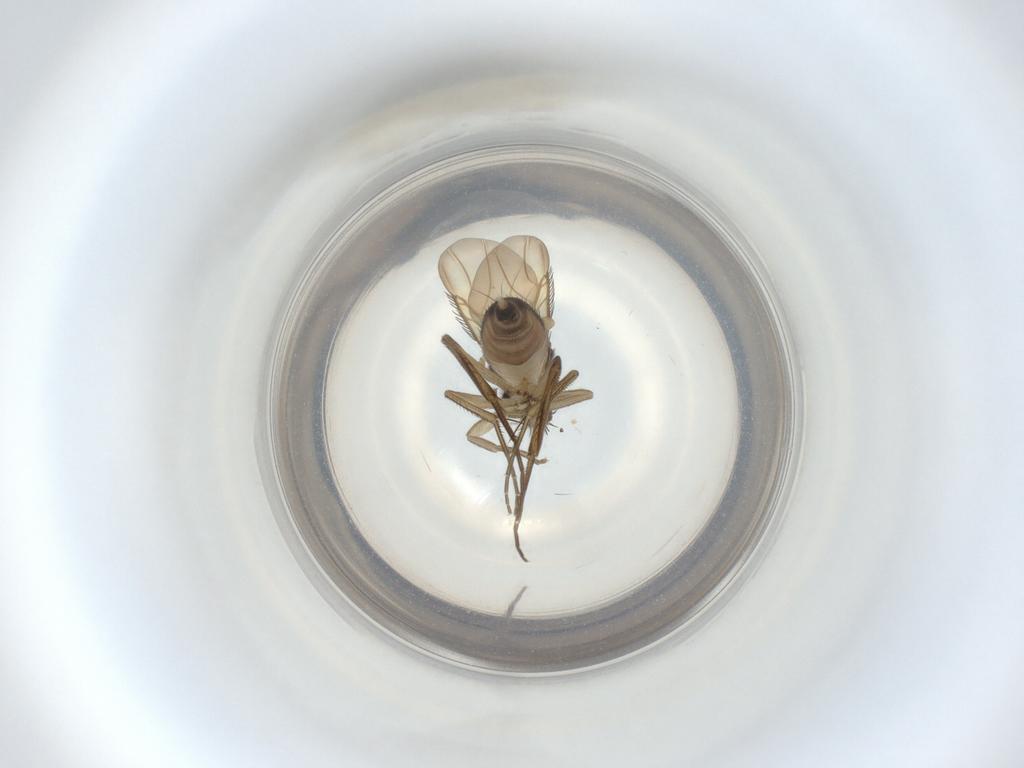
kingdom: Animalia
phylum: Arthropoda
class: Insecta
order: Diptera
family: Phoridae
